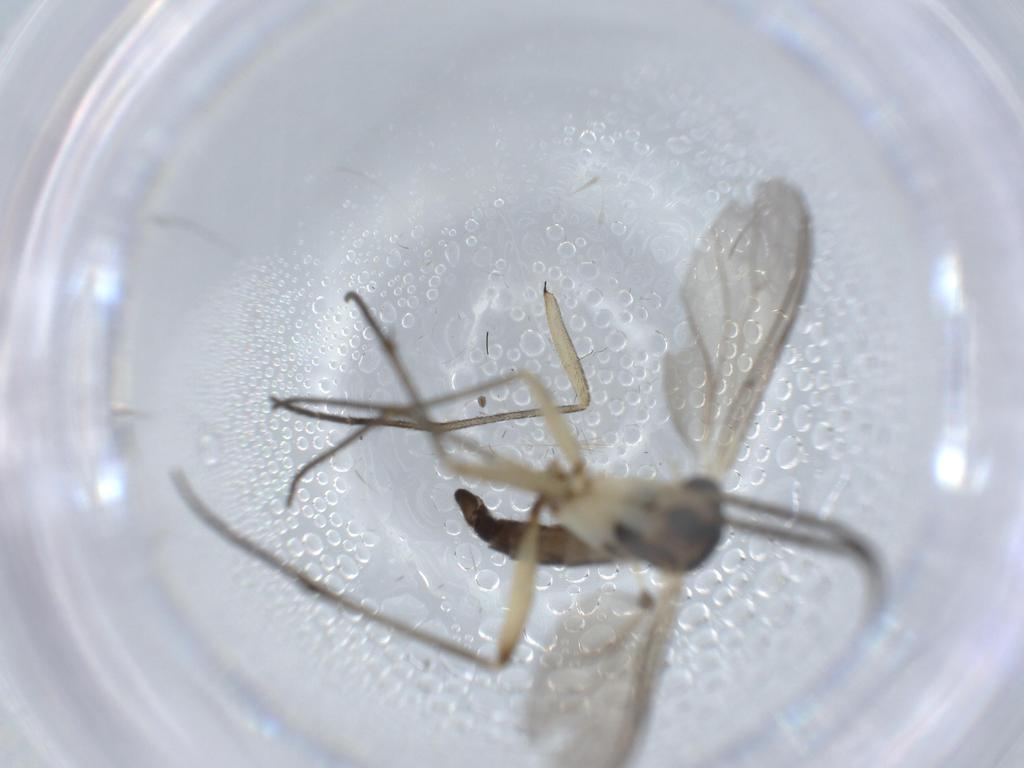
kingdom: Animalia
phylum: Arthropoda
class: Insecta
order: Diptera
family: Sciaridae
